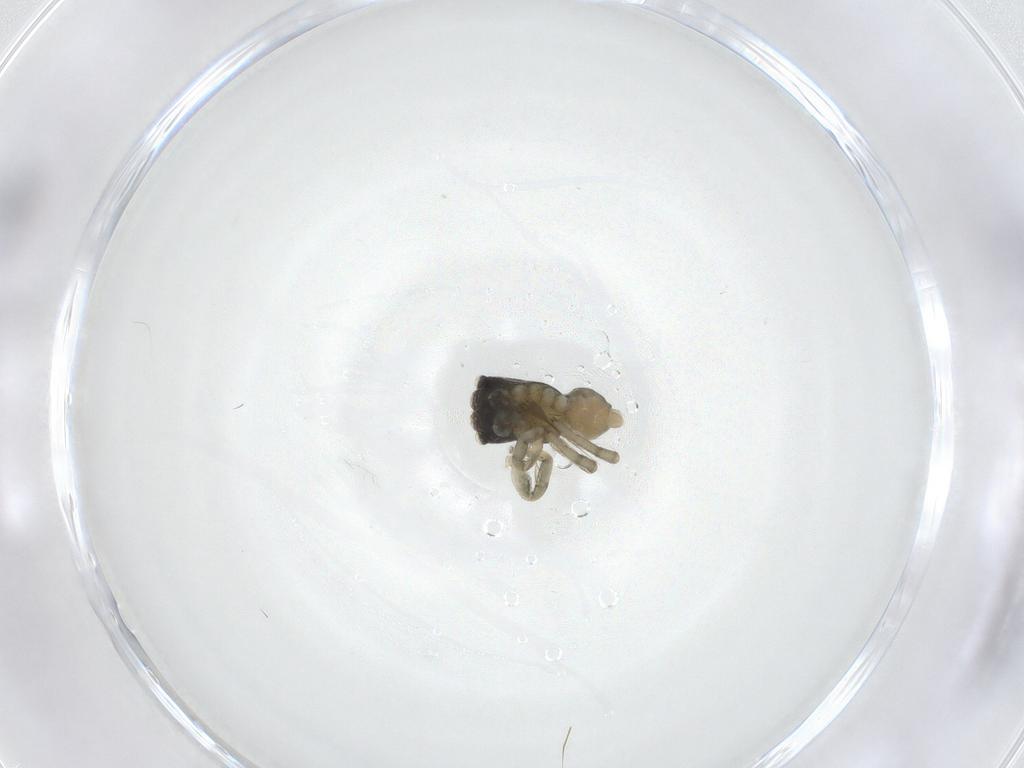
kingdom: Animalia
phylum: Arthropoda
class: Arachnida
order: Araneae
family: Salticidae
